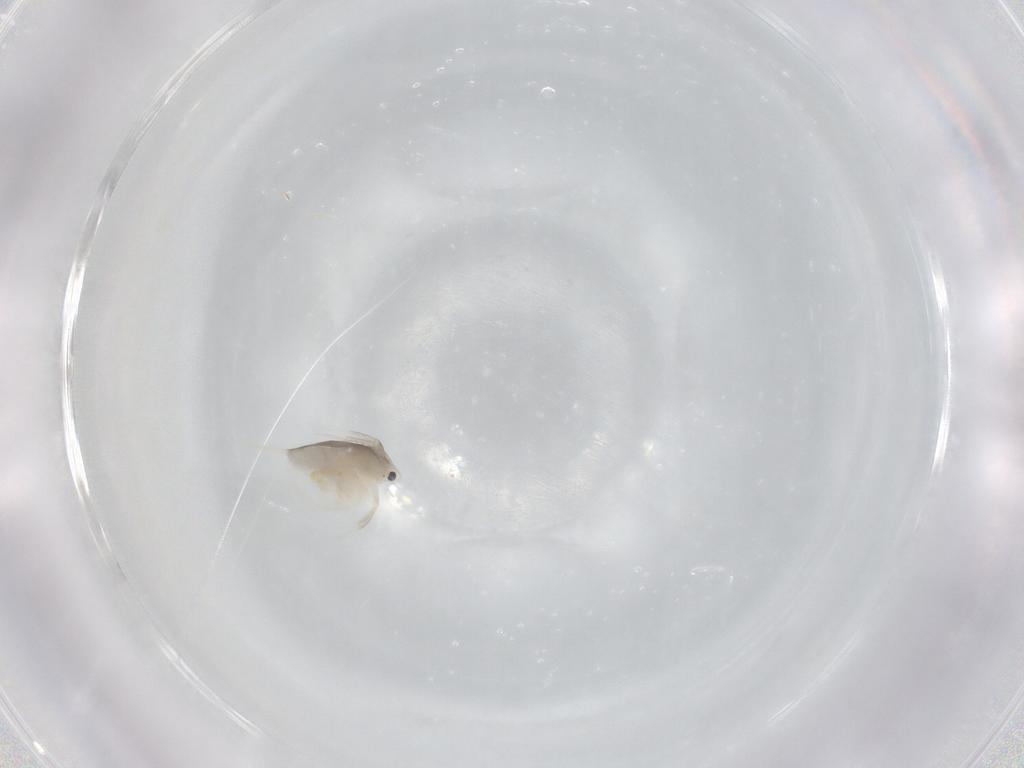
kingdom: Animalia
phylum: Arthropoda
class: Branchiopoda
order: Diplostraca
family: Daphniidae
